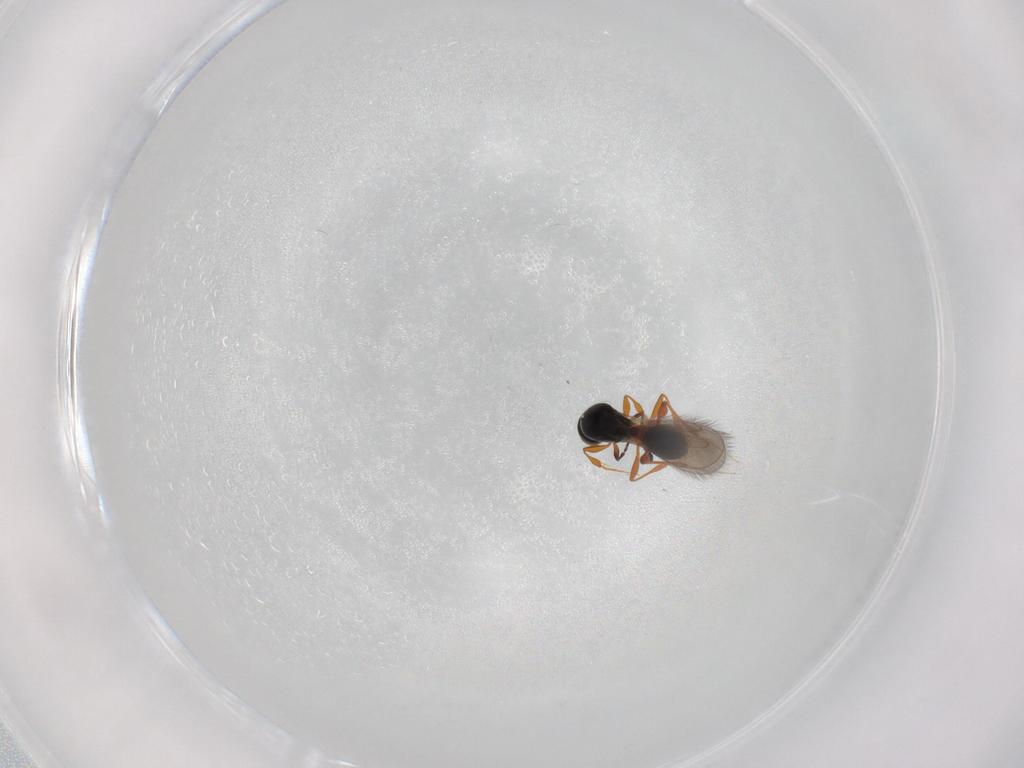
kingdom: Animalia
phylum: Arthropoda
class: Insecta
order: Hymenoptera
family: Platygastridae
